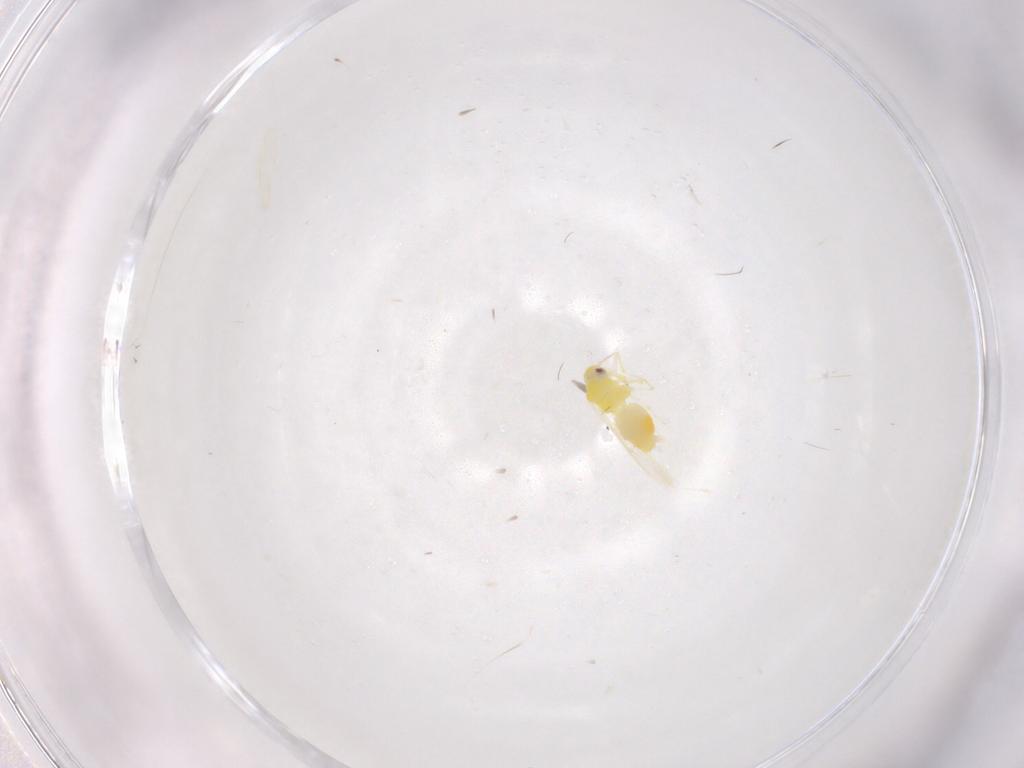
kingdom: Animalia
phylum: Arthropoda
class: Insecta
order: Hemiptera
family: Aleyrodidae
